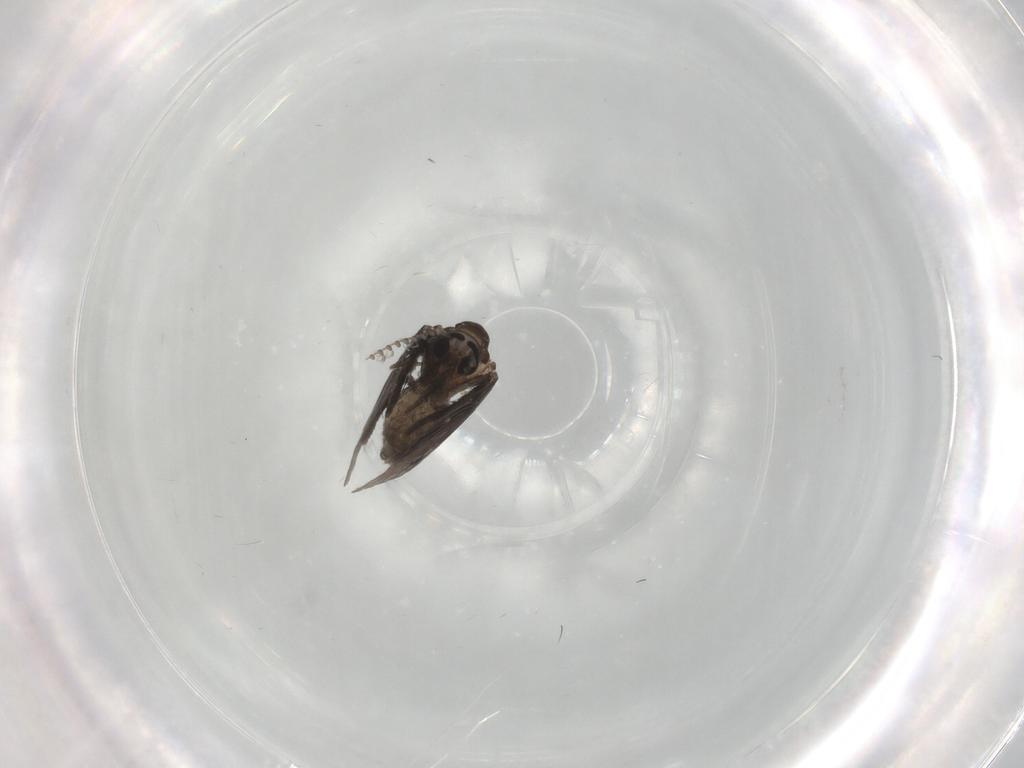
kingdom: Animalia
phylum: Arthropoda
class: Insecta
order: Diptera
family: Psychodidae
